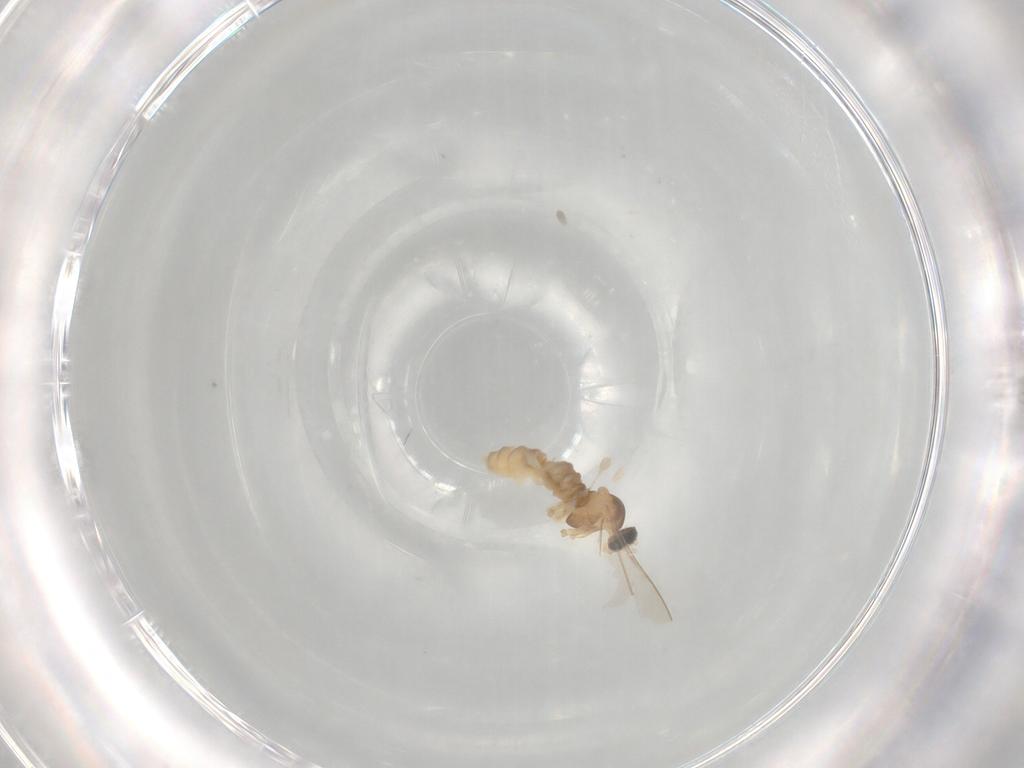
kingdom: Animalia
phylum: Arthropoda
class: Insecta
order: Diptera
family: Cecidomyiidae
